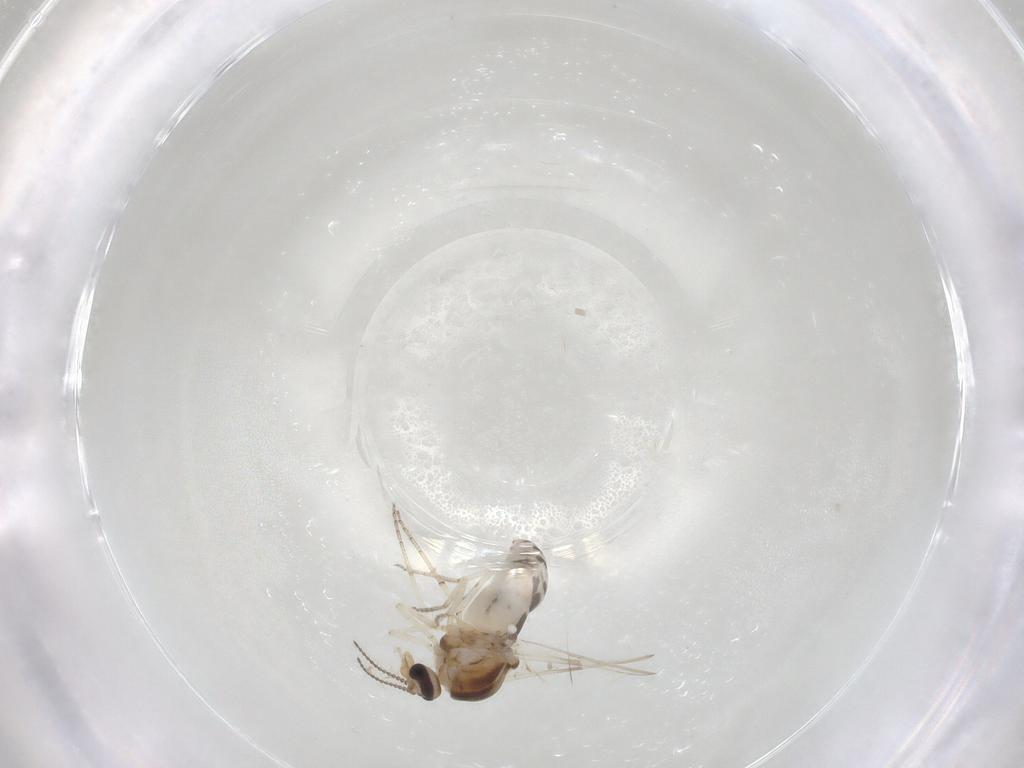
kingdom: Animalia
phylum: Arthropoda
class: Insecta
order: Diptera
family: Ceratopogonidae
